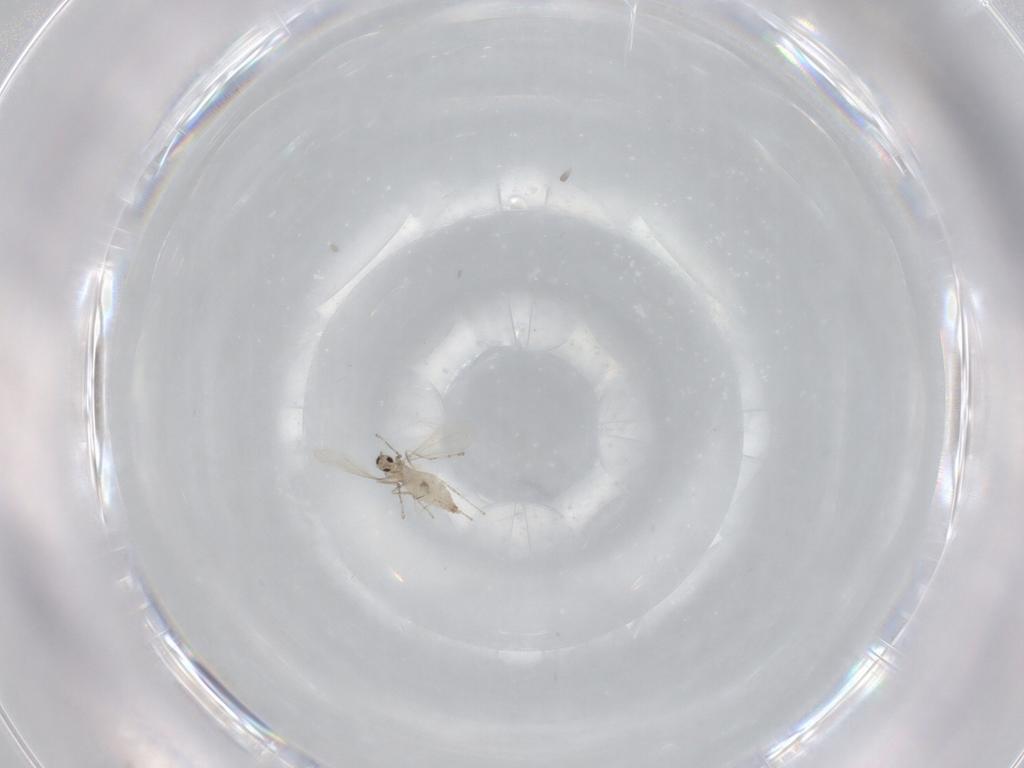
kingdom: Animalia
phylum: Arthropoda
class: Insecta
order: Diptera
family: Cecidomyiidae
